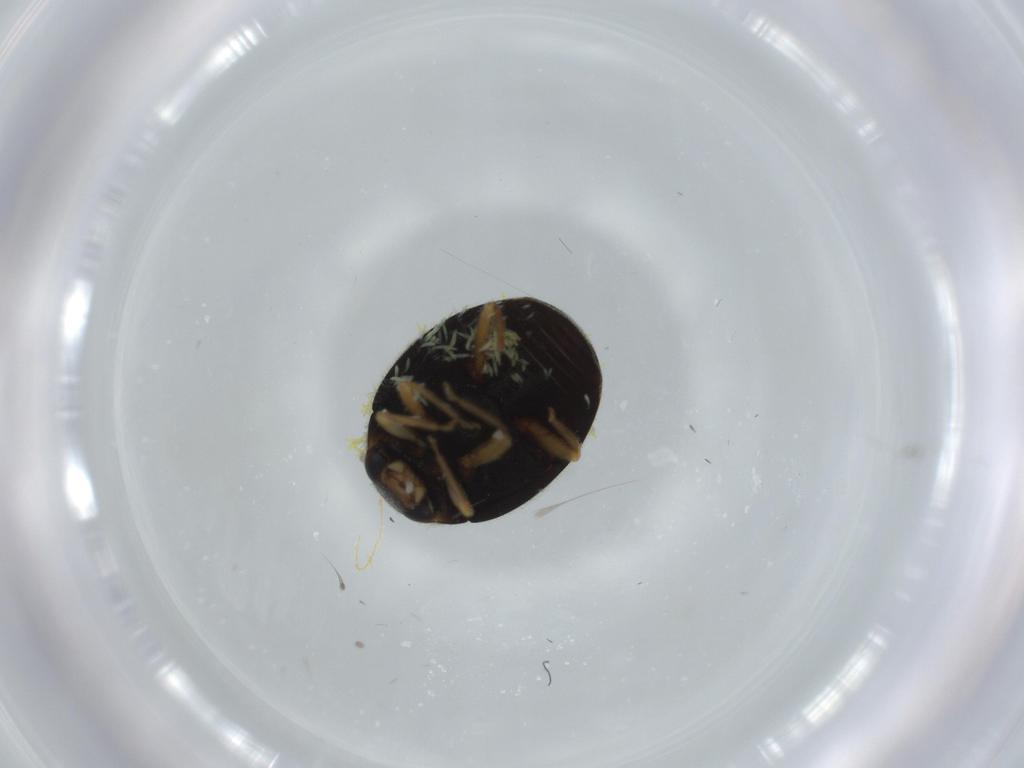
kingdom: Animalia
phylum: Arthropoda
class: Insecta
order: Coleoptera
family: Coccinellidae
